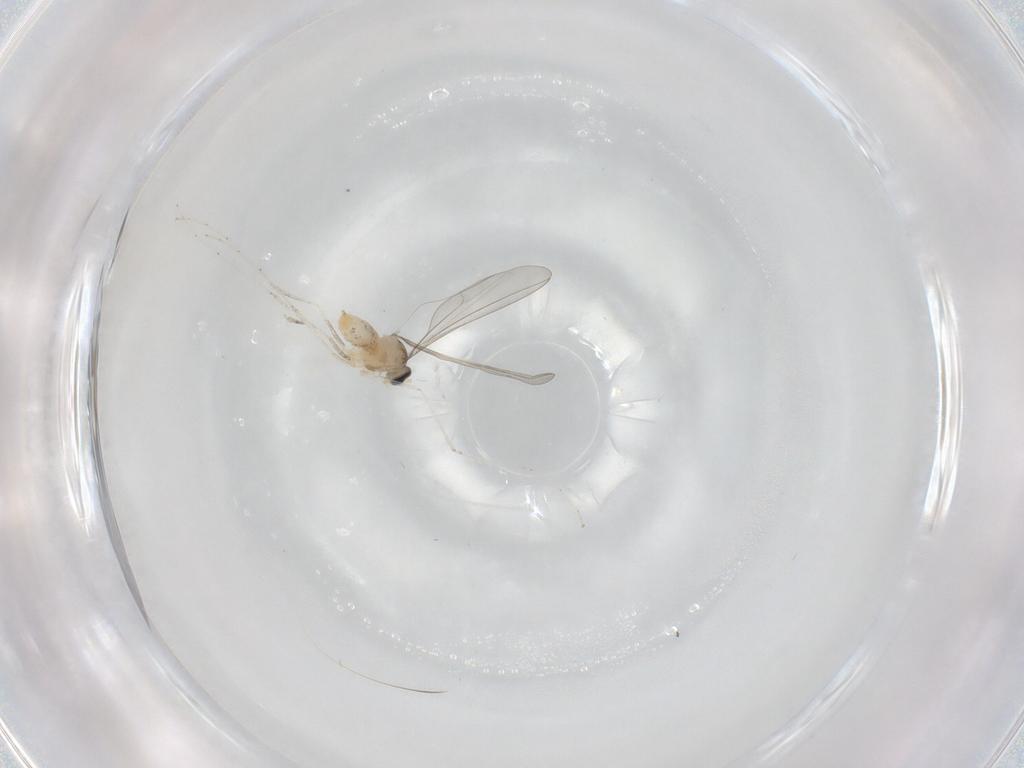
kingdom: Animalia
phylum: Arthropoda
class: Insecta
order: Diptera
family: Cecidomyiidae
